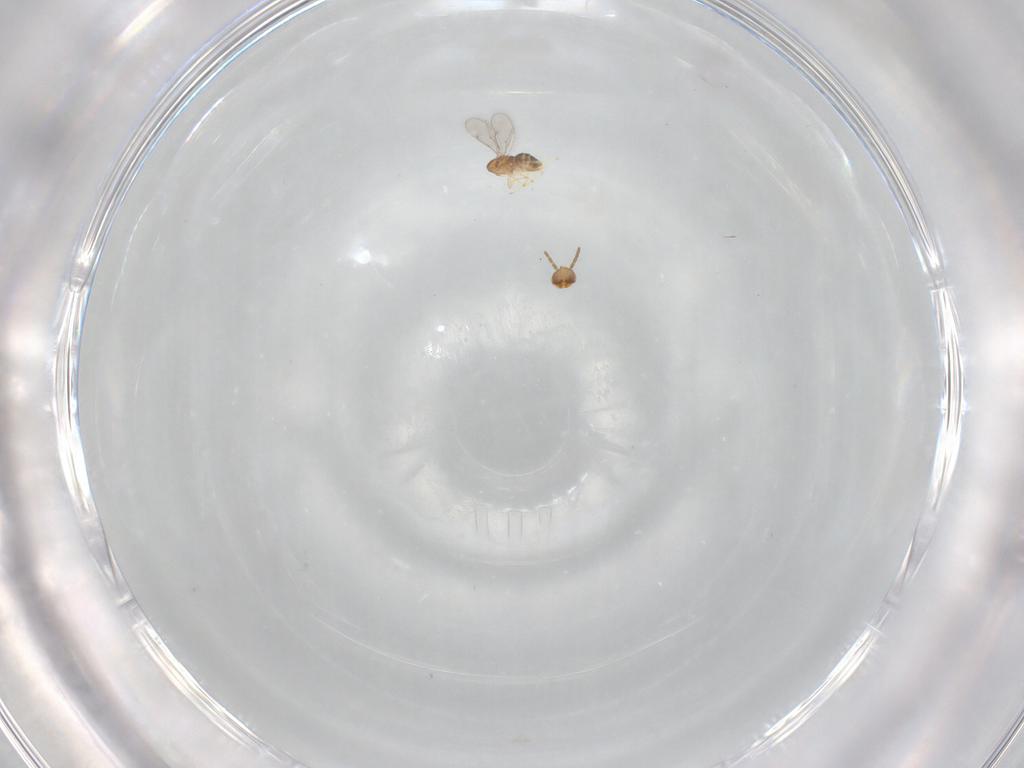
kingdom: Animalia
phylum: Arthropoda
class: Insecta
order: Hymenoptera
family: Aphelinidae
